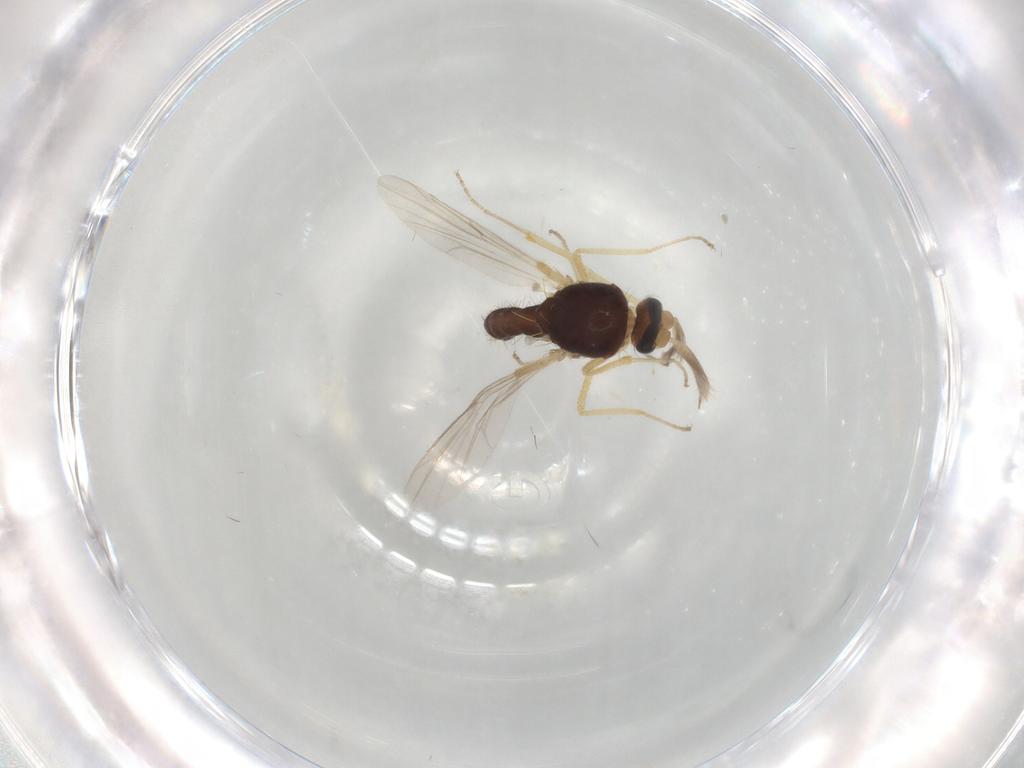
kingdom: Animalia
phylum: Arthropoda
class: Insecta
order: Diptera
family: Ceratopogonidae
